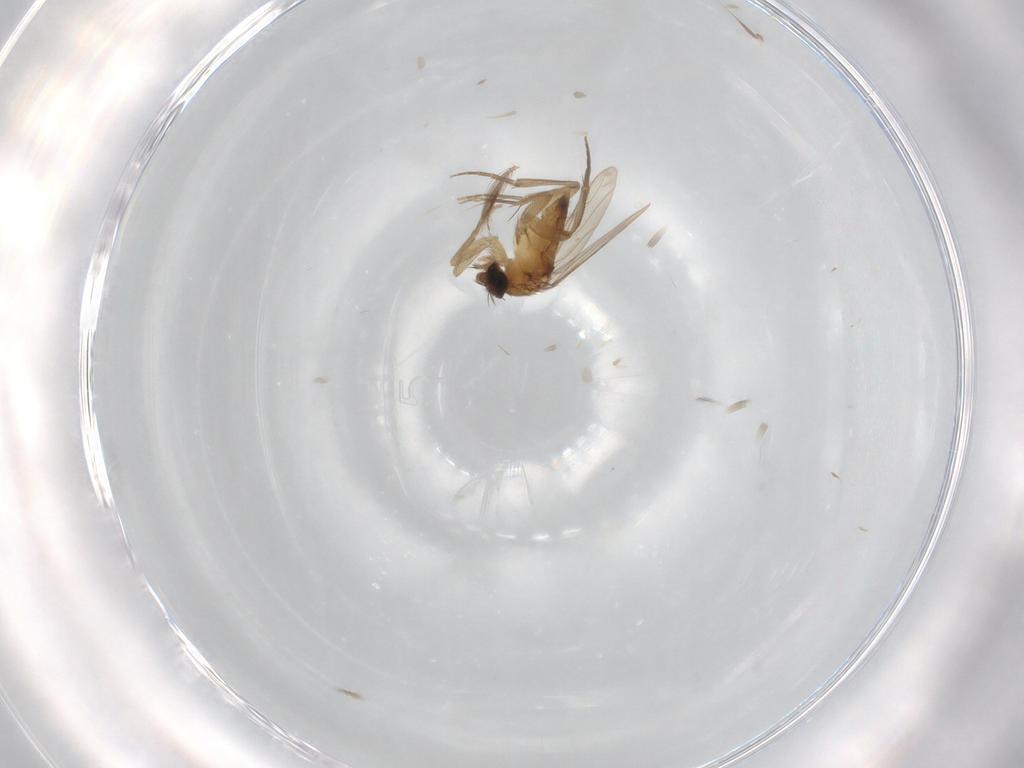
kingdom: Animalia
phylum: Arthropoda
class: Insecta
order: Diptera
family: Phoridae
